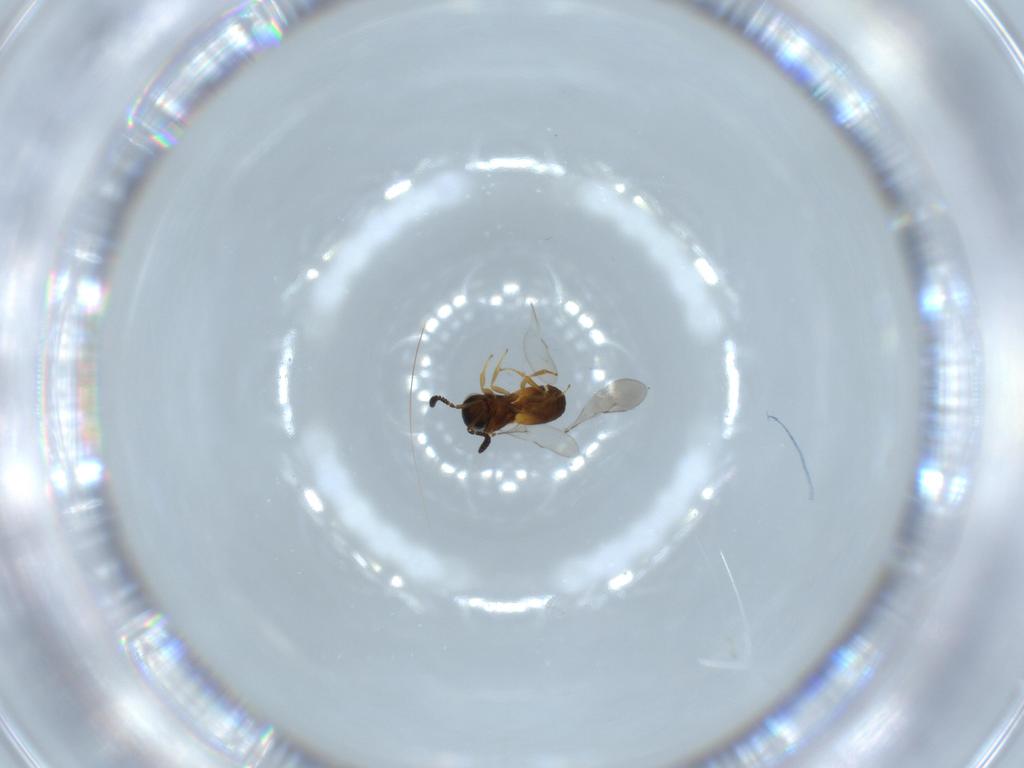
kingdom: Animalia
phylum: Arthropoda
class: Insecta
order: Hymenoptera
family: Scelionidae
